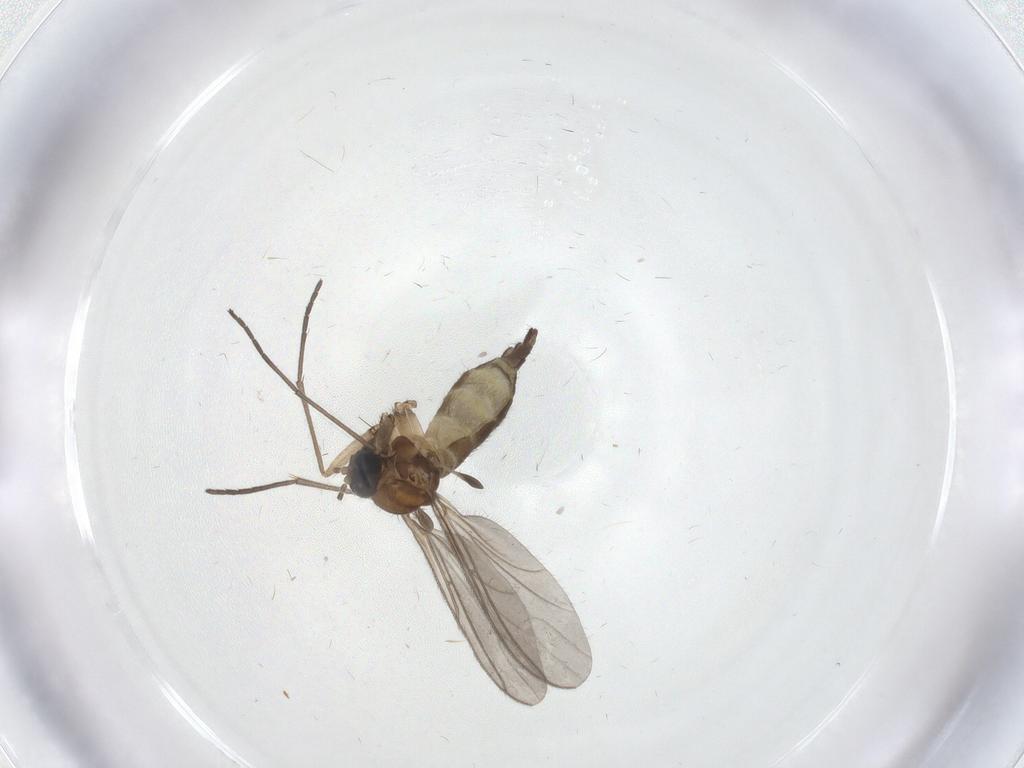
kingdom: Animalia
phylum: Arthropoda
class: Insecta
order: Diptera
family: Sciaridae
